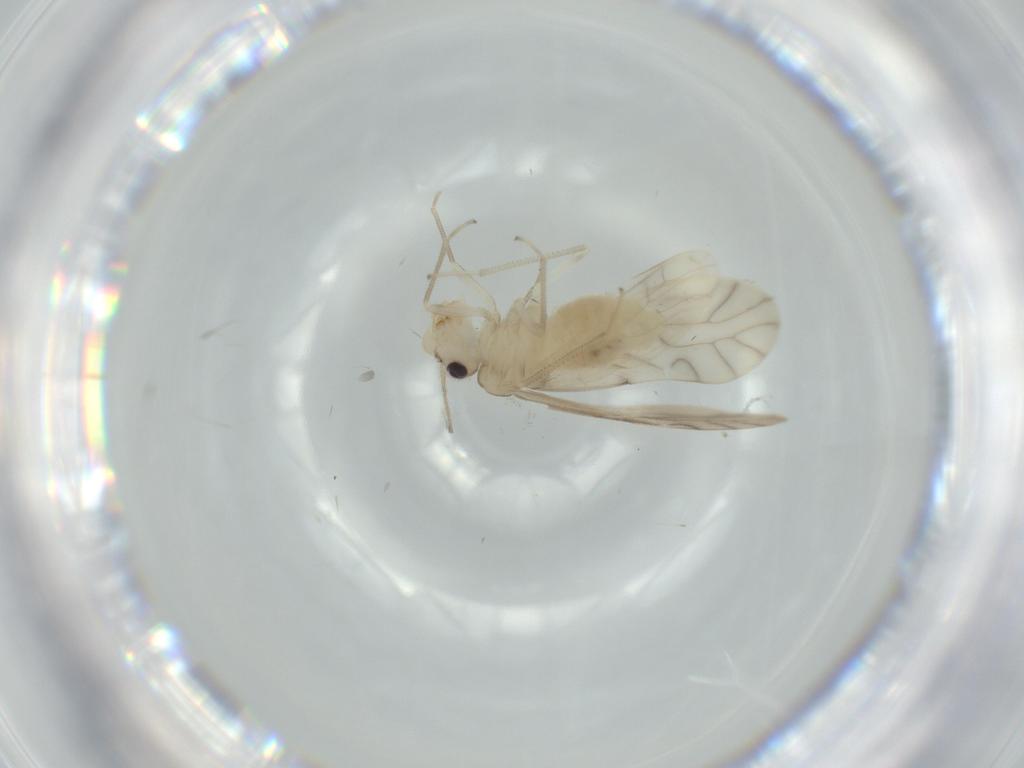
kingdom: Animalia
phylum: Arthropoda
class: Insecta
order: Psocodea
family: Caeciliusidae
